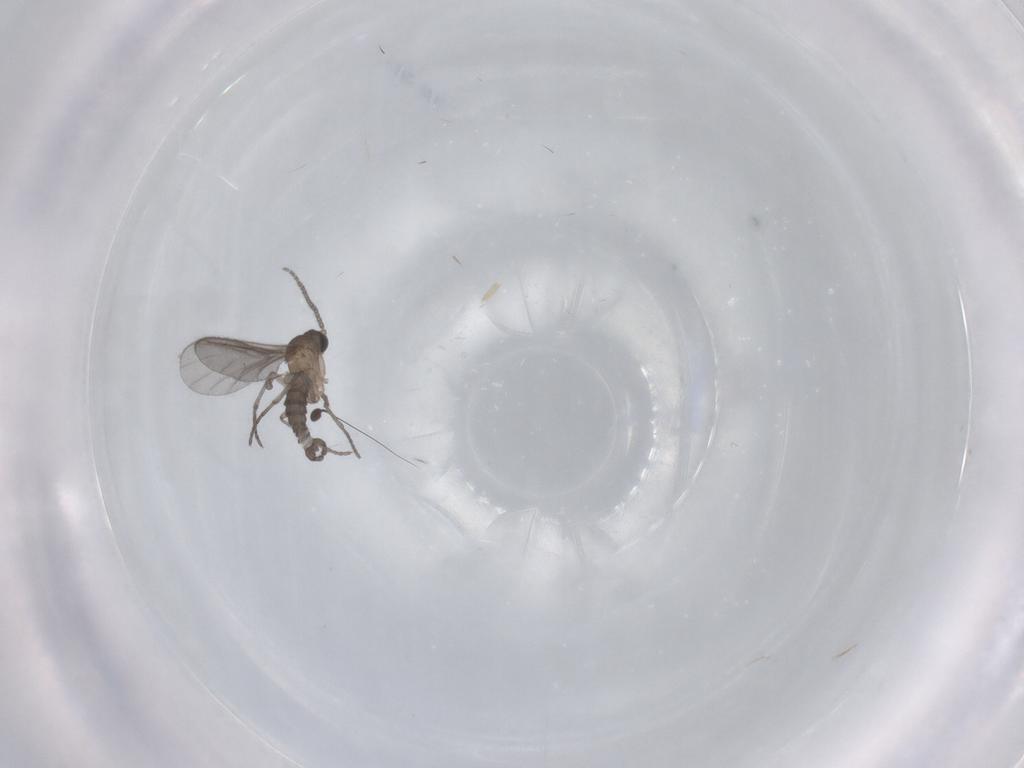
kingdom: Animalia
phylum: Arthropoda
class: Insecta
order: Diptera
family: Sciaridae
